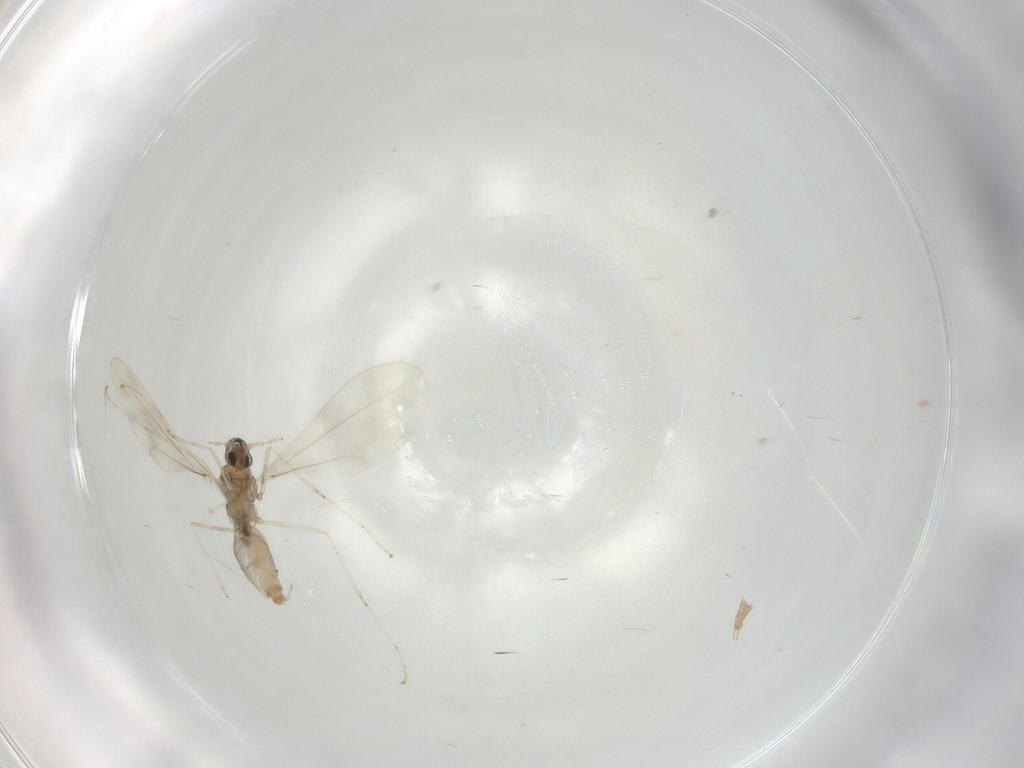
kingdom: Animalia
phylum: Arthropoda
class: Insecta
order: Diptera
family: Cecidomyiidae
